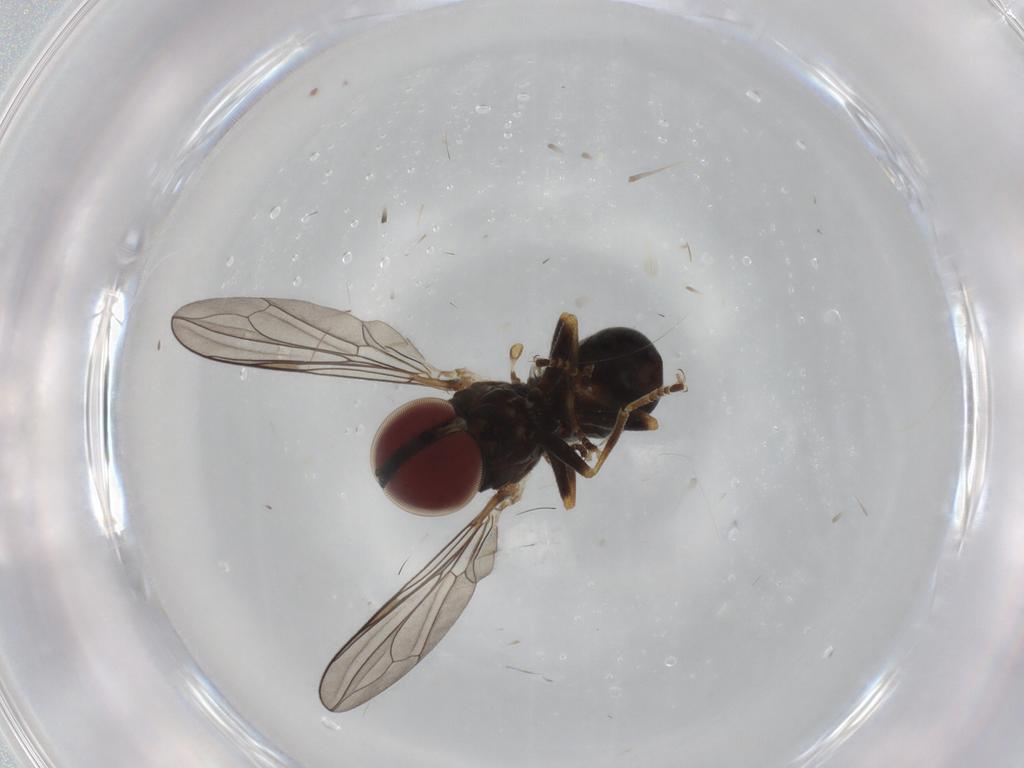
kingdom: Animalia
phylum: Arthropoda
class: Insecta
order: Diptera
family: Pipunculidae
